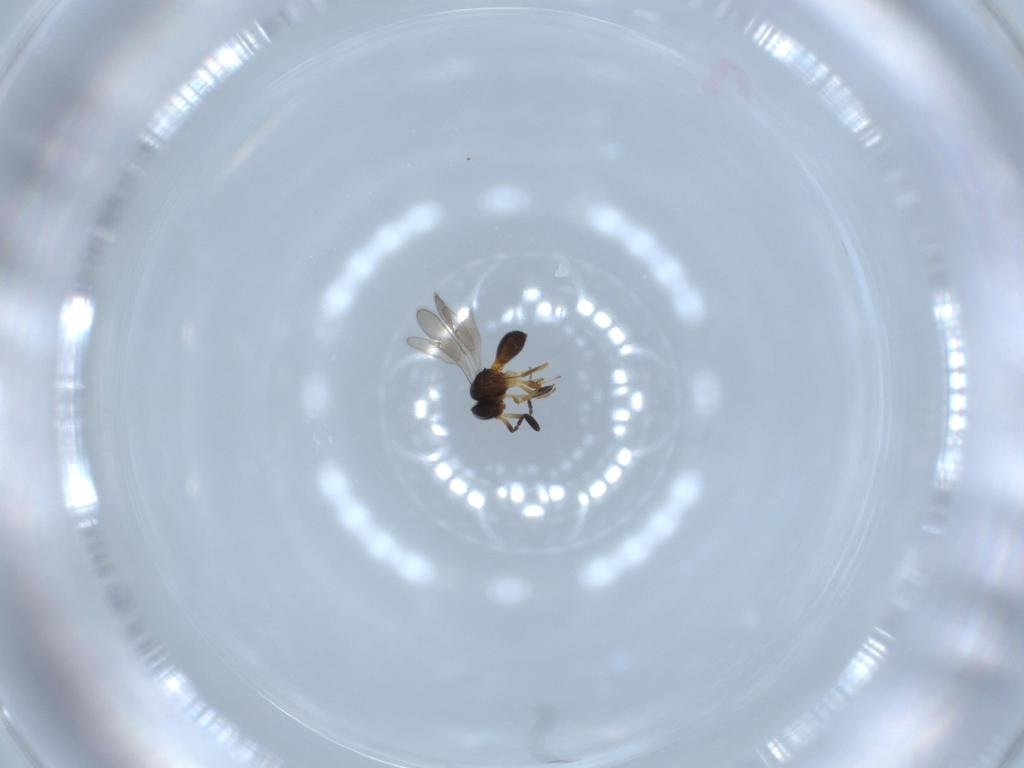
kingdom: Animalia
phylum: Arthropoda
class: Insecta
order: Hymenoptera
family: Scelionidae
